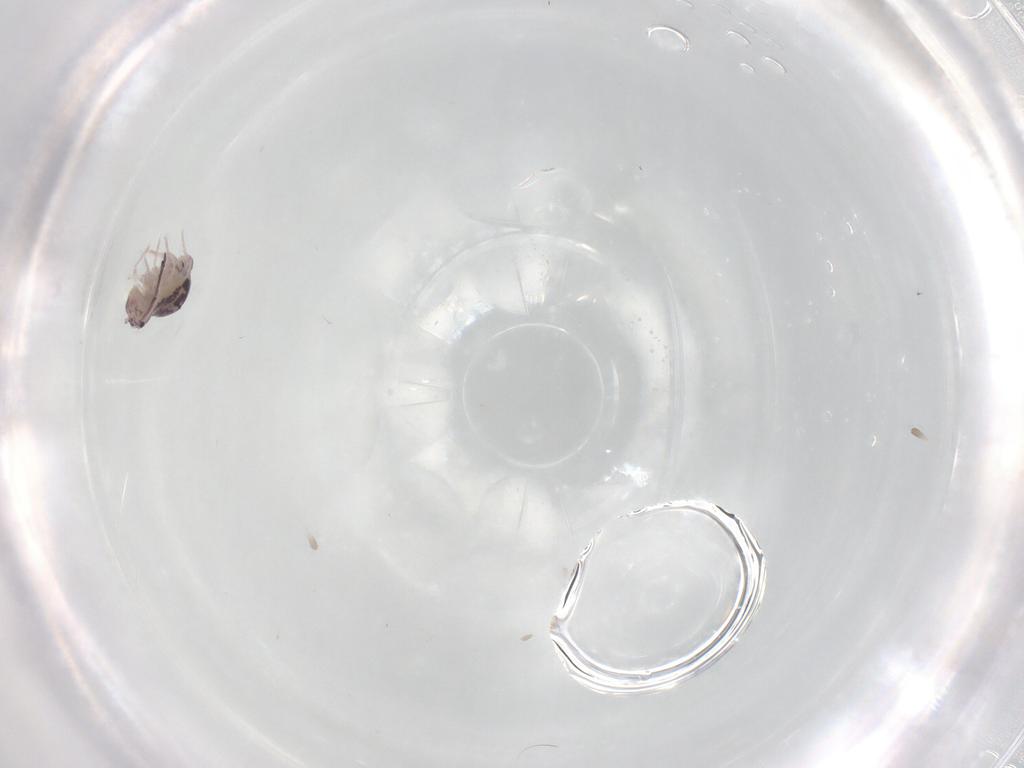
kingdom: Animalia
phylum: Arthropoda
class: Collembola
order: Symphypleona
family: Dicyrtomidae
